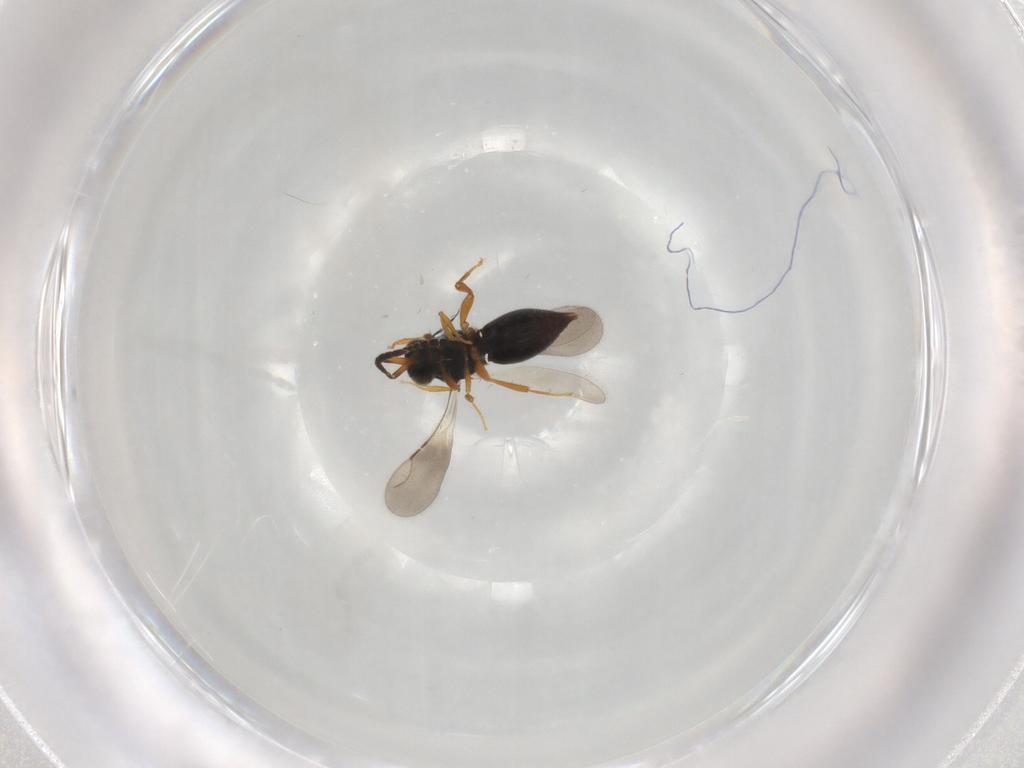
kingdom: Animalia
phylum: Arthropoda
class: Insecta
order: Hymenoptera
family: Ceraphronidae
